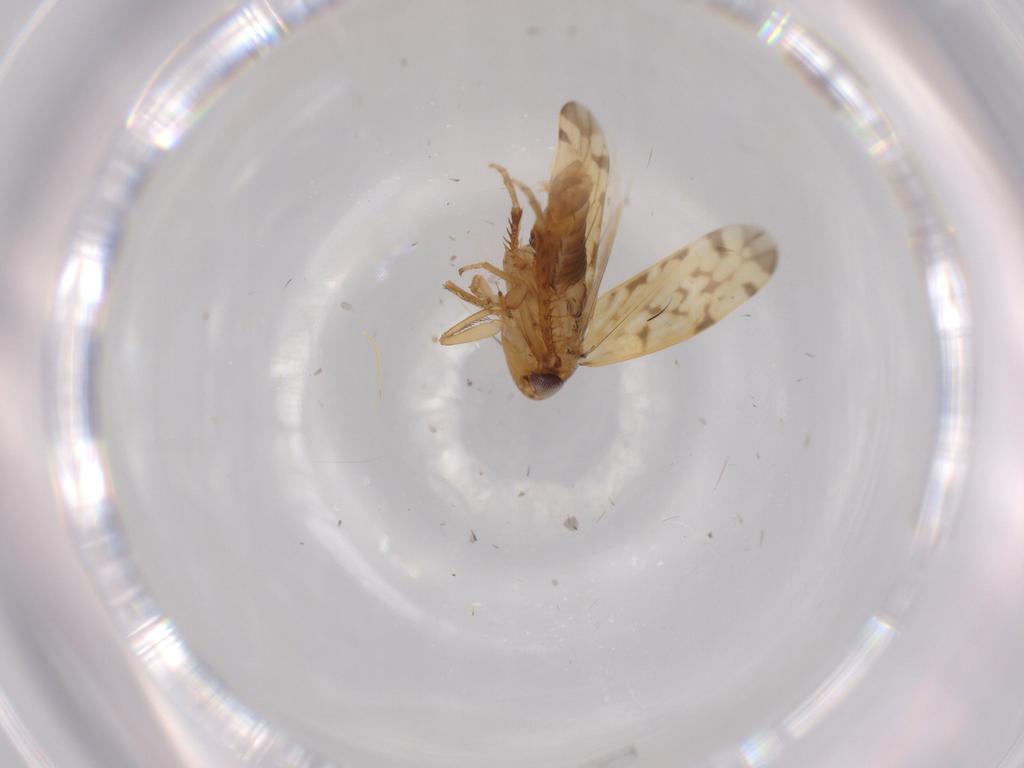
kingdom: Animalia
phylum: Arthropoda
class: Insecta
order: Hemiptera
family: Cicadellidae
